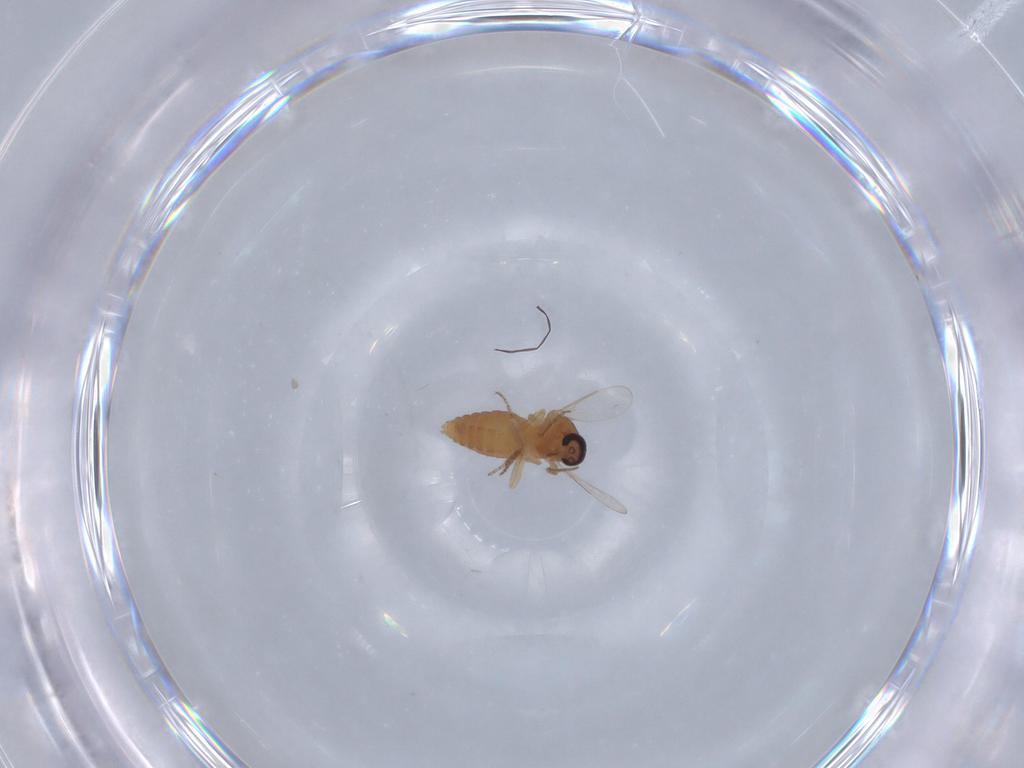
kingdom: Animalia
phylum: Arthropoda
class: Insecta
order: Diptera
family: Ceratopogonidae
